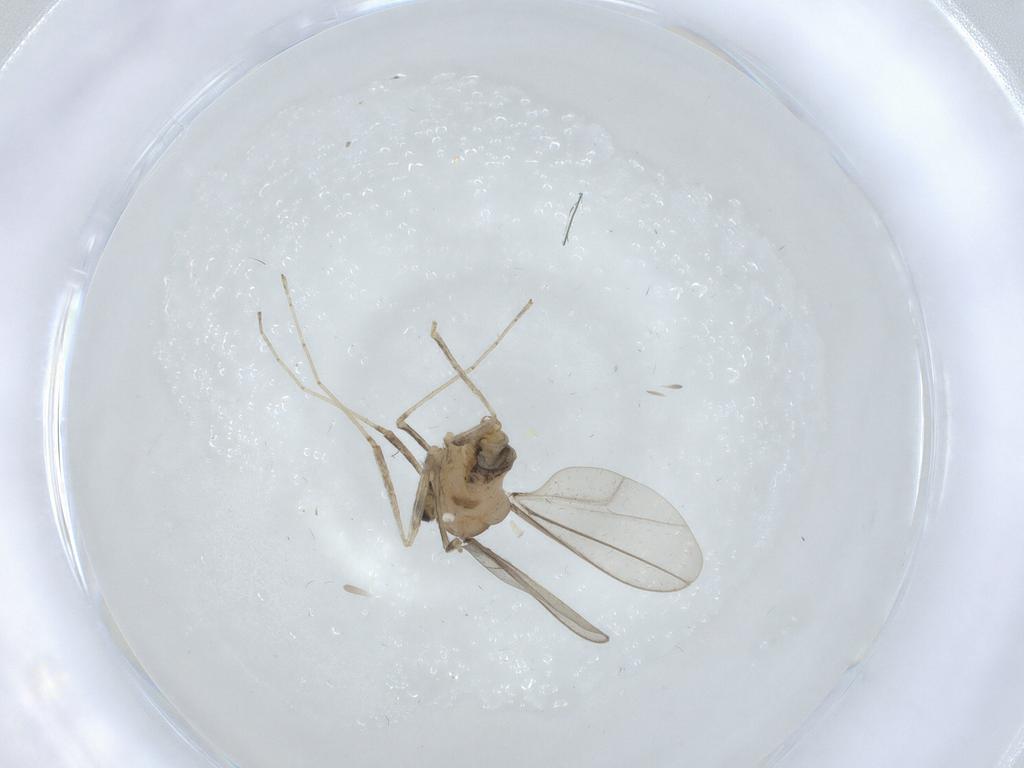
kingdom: Animalia
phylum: Arthropoda
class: Insecta
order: Diptera
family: Cecidomyiidae
